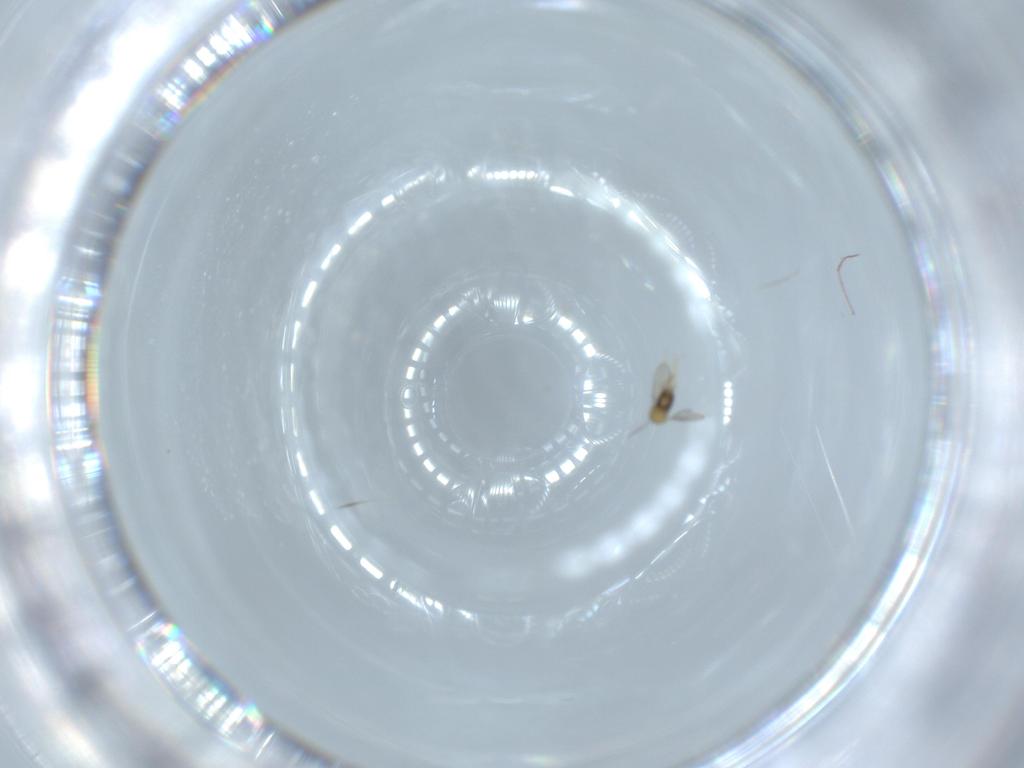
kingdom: Animalia
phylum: Arthropoda
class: Insecta
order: Hymenoptera
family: Aphelinidae
